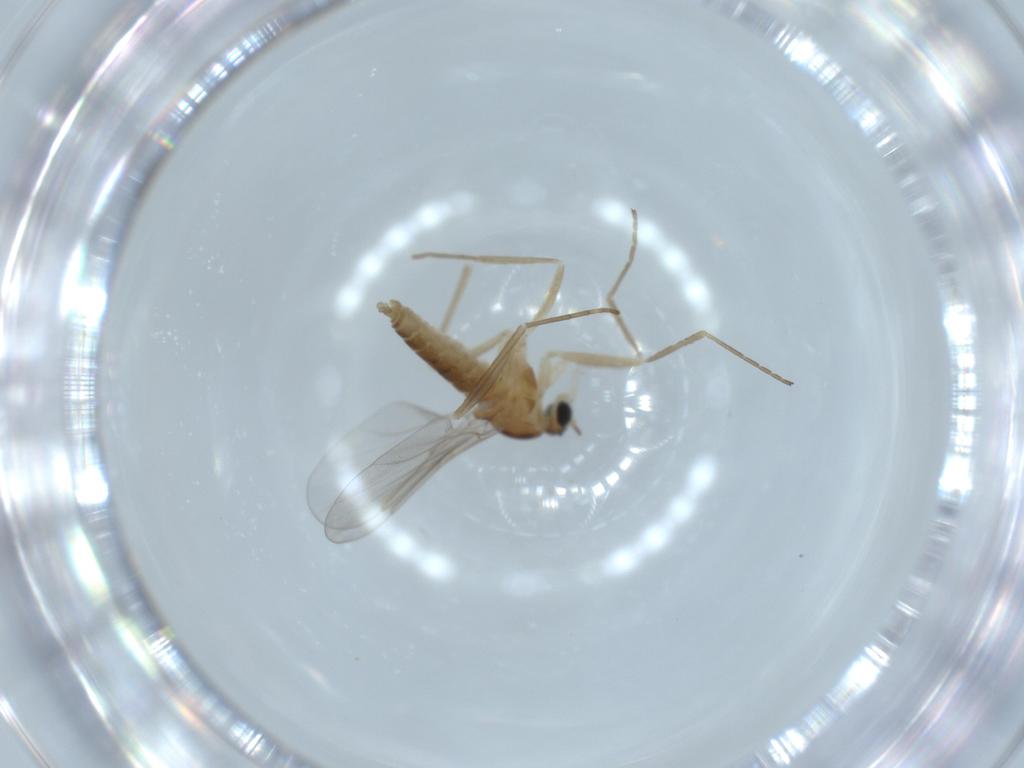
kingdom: Animalia
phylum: Arthropoda
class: Insecta
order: Diptera
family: Cecidomyiidae
